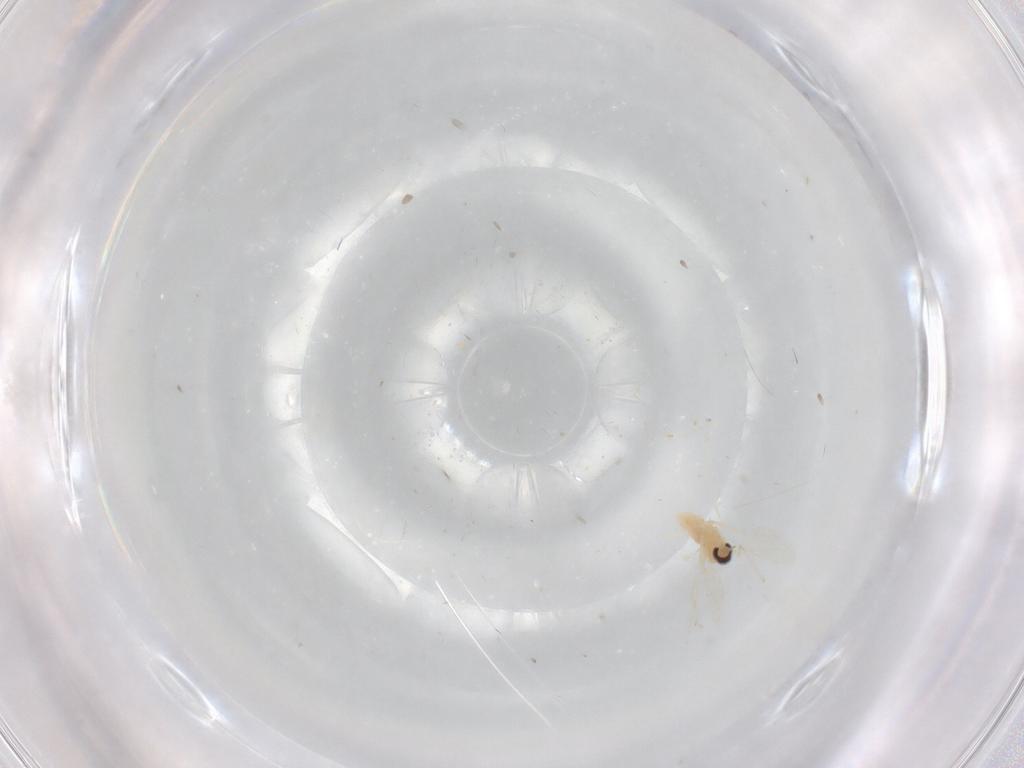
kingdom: Animalia
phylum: Arthropoda
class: Insecta
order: Diptera
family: Cecidomyiidae
